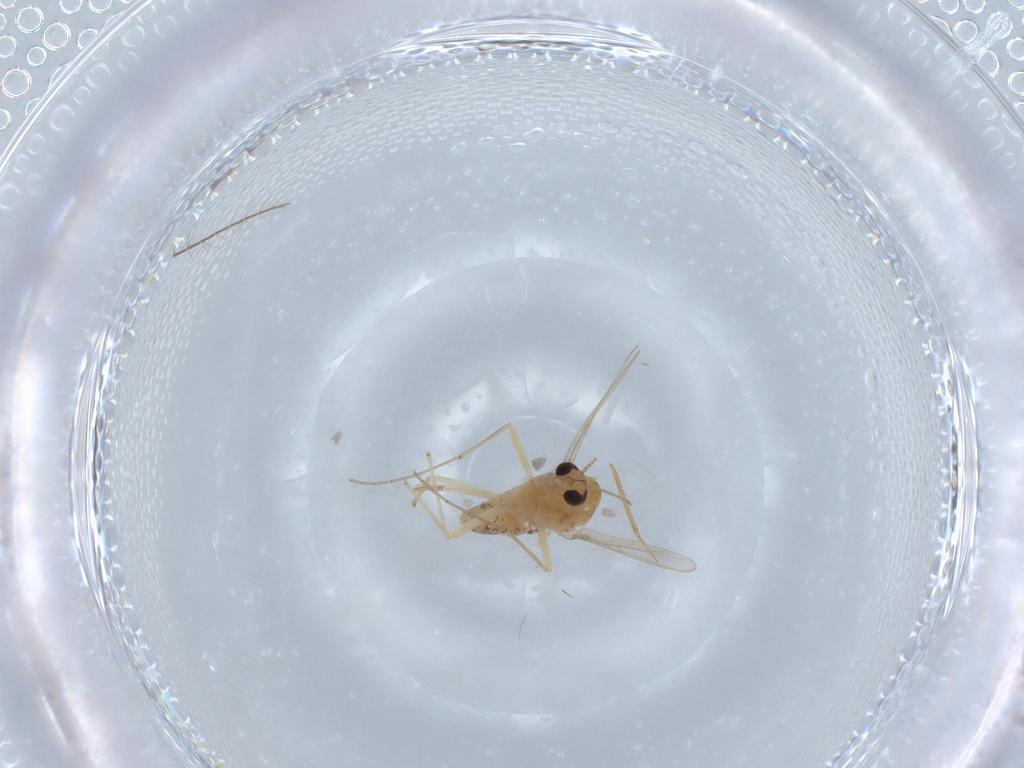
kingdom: Animalia
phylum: Arthropoda
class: Insecta
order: Diptera
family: Chironomidae
